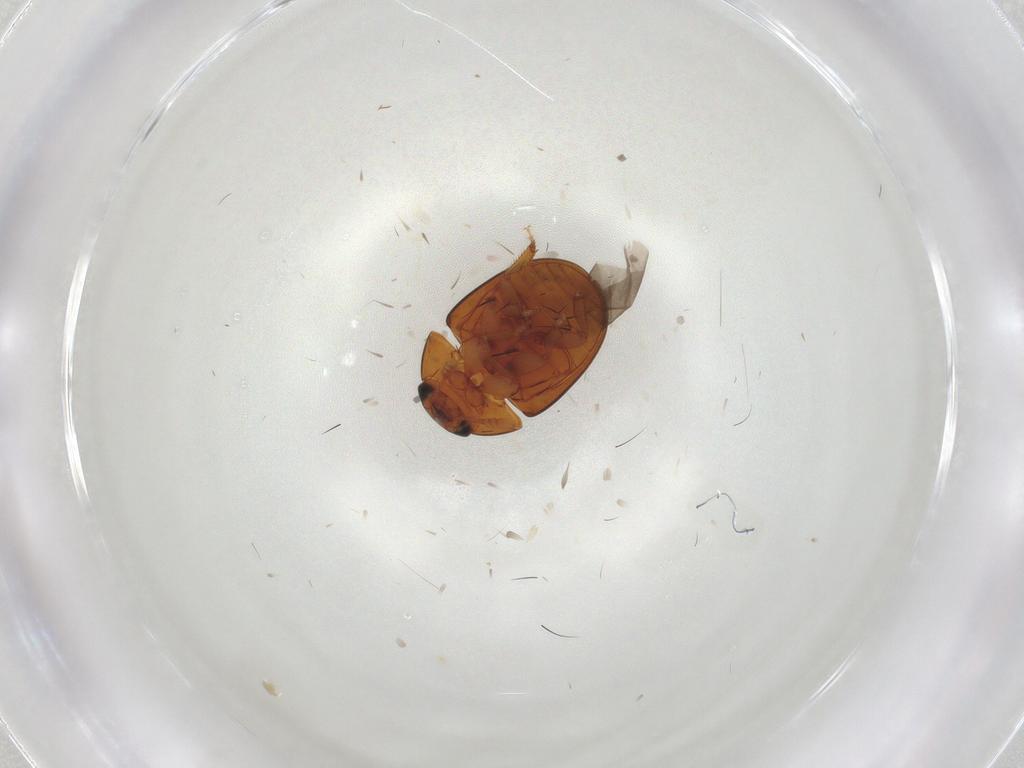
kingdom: Animalia
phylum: Arthropoda
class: Insecta
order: Coleoptera
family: Phalacridae
